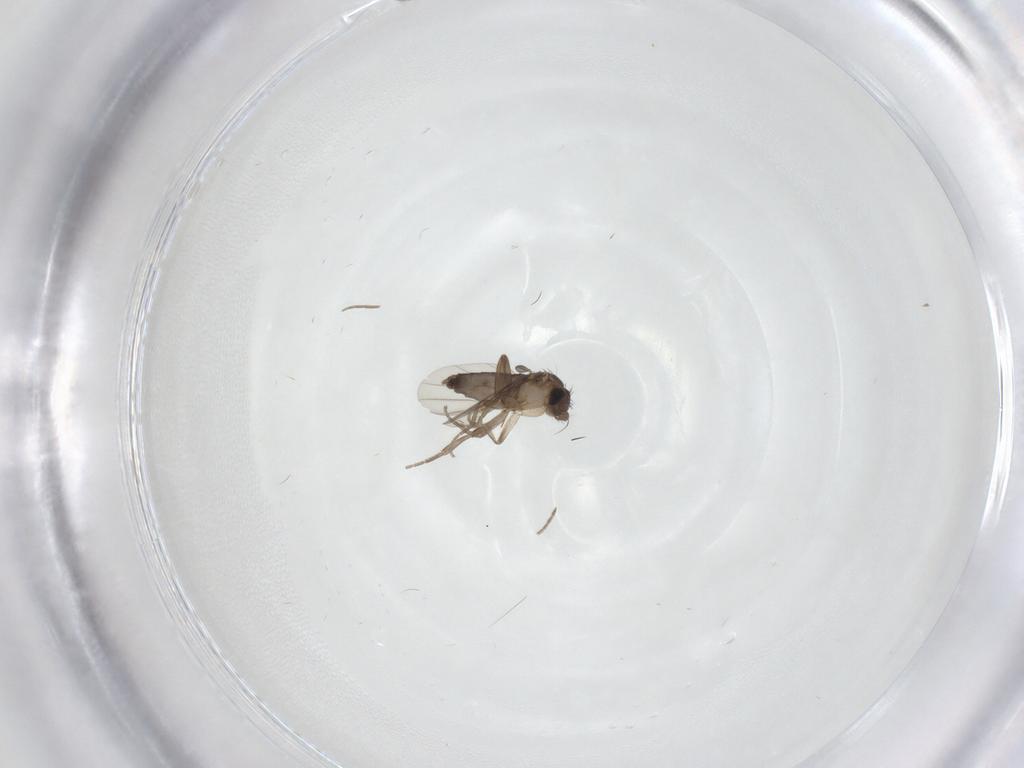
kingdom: Animalia
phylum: Arthropoda
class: Insecta
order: Diptera
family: Phoridae
